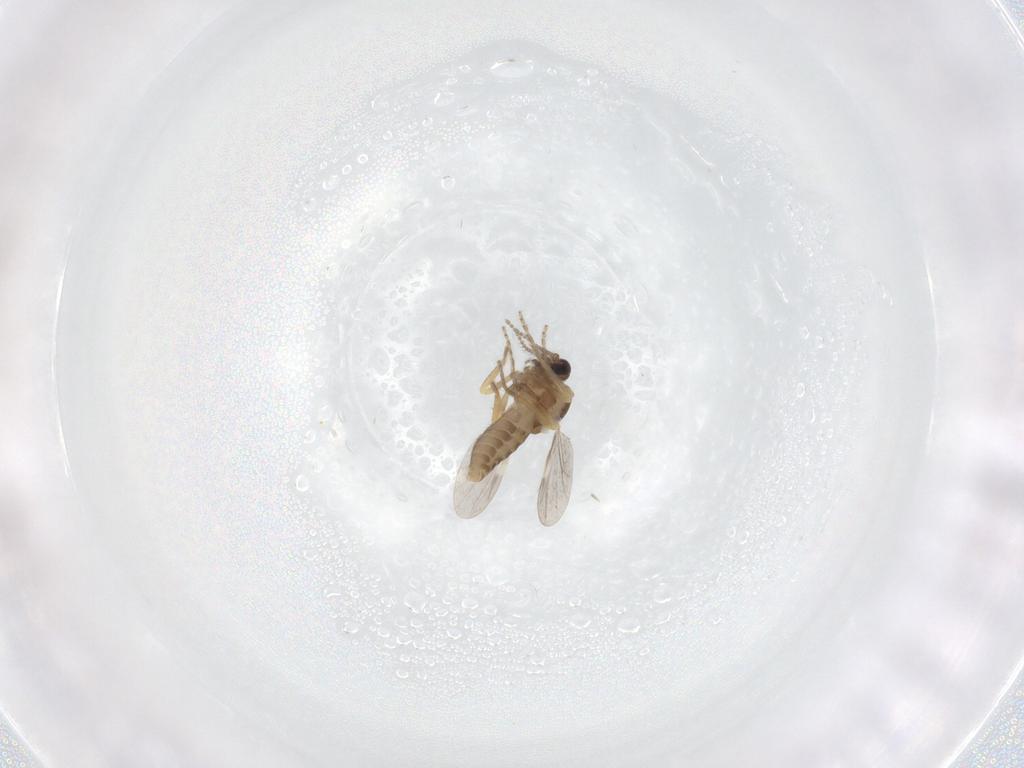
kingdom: Animalia
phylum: Arthropoda
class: Insecta
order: Diptera
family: Ceratopogonidae
